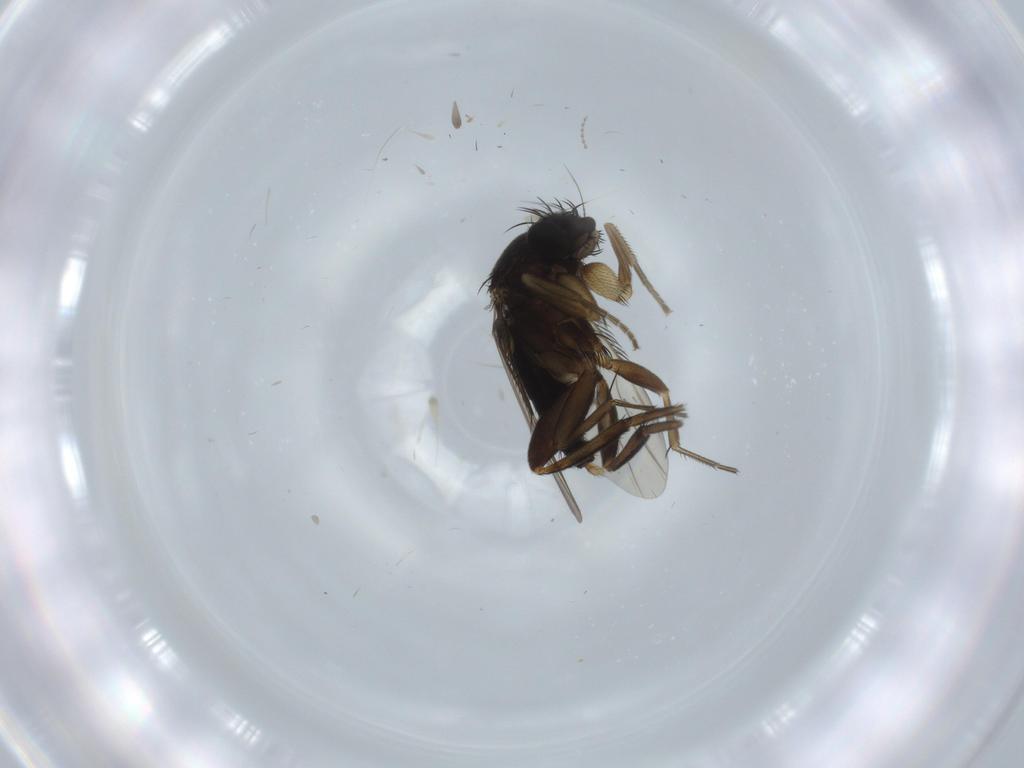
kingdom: Animalia
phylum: Arthropoda
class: Insecta
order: Diptera
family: Phoridae
